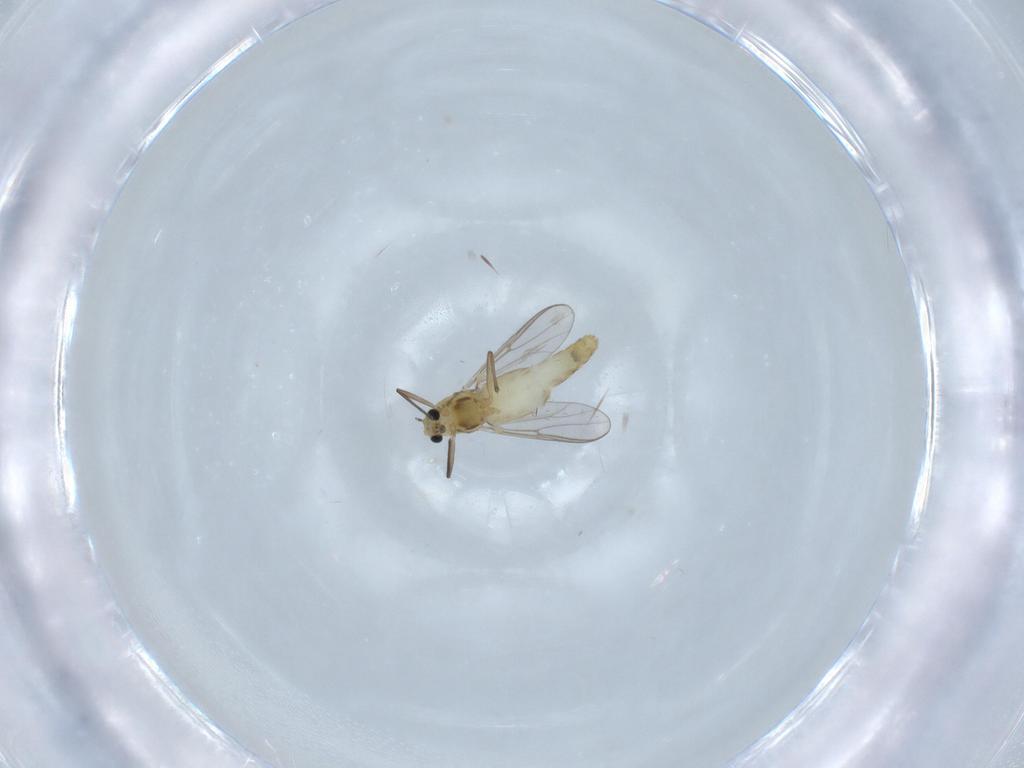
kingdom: Animalia
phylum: Arthropoda
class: Insecta
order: Diptera
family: Chironomidae
